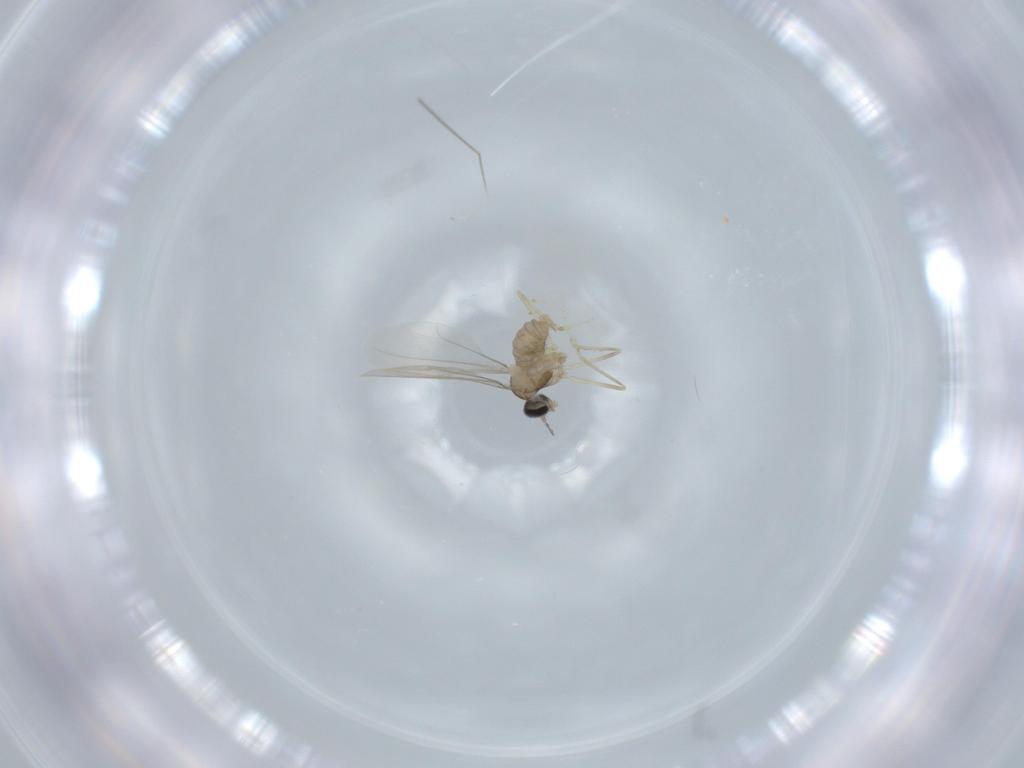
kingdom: Animalia
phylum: Arthropoda
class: Insecta
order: Diptera
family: Cecidomyiidae
